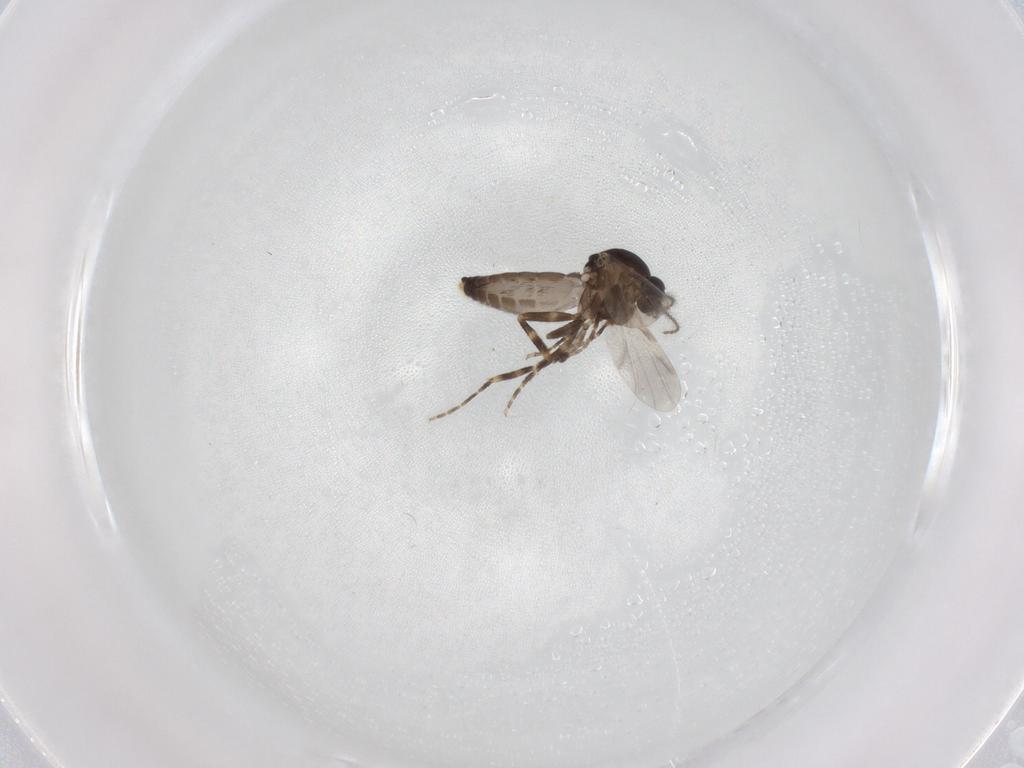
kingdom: Animalia
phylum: Arthropoda
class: Insecta
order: Diptera
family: Ceratopogonidae
